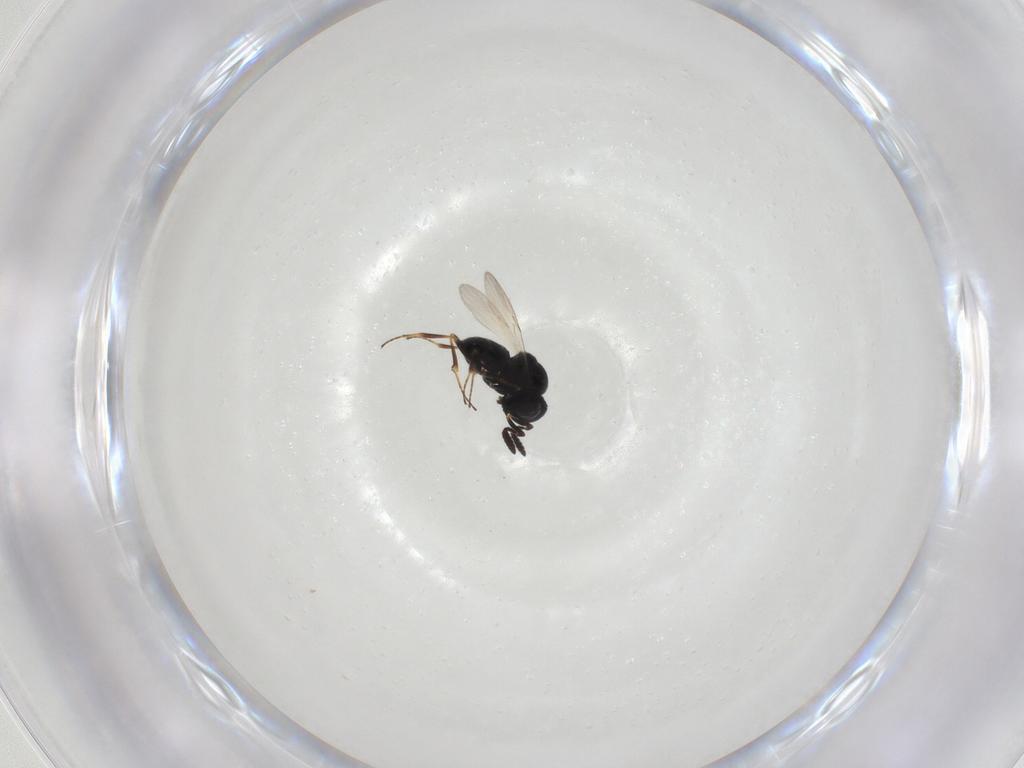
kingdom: Animalia
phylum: Arthropoda
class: Insecta
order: Hymenoptera
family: Scelionidae
